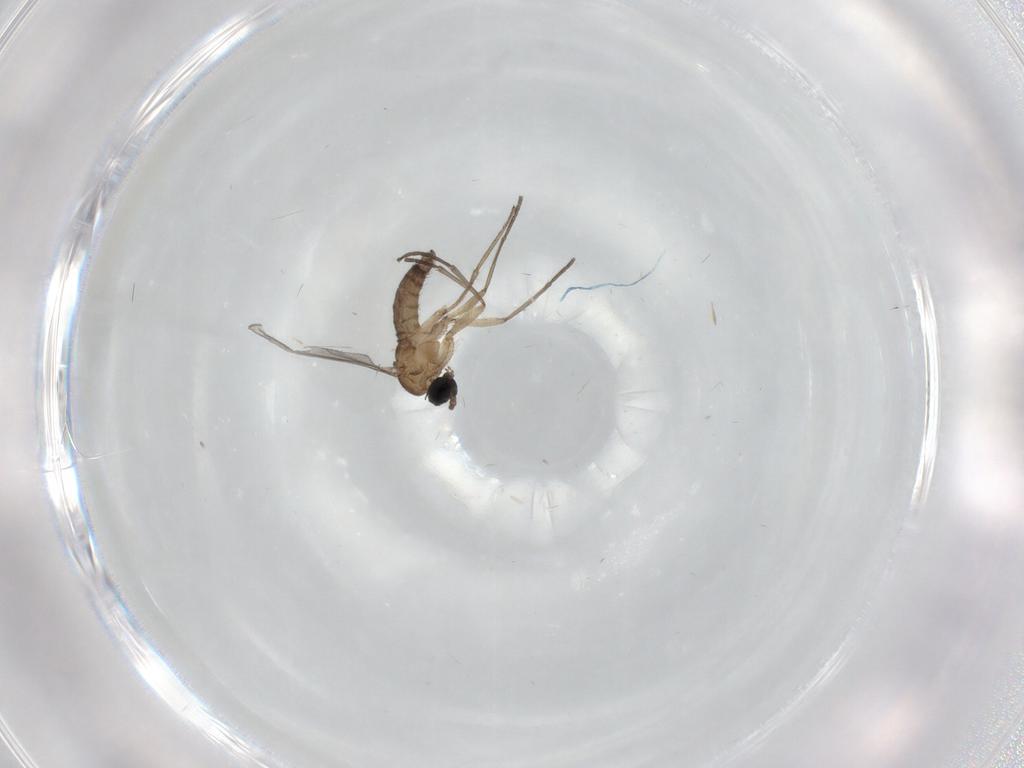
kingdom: Animalia
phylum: Arthropoda
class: Insecta
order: Diptera
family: Sciaridae
